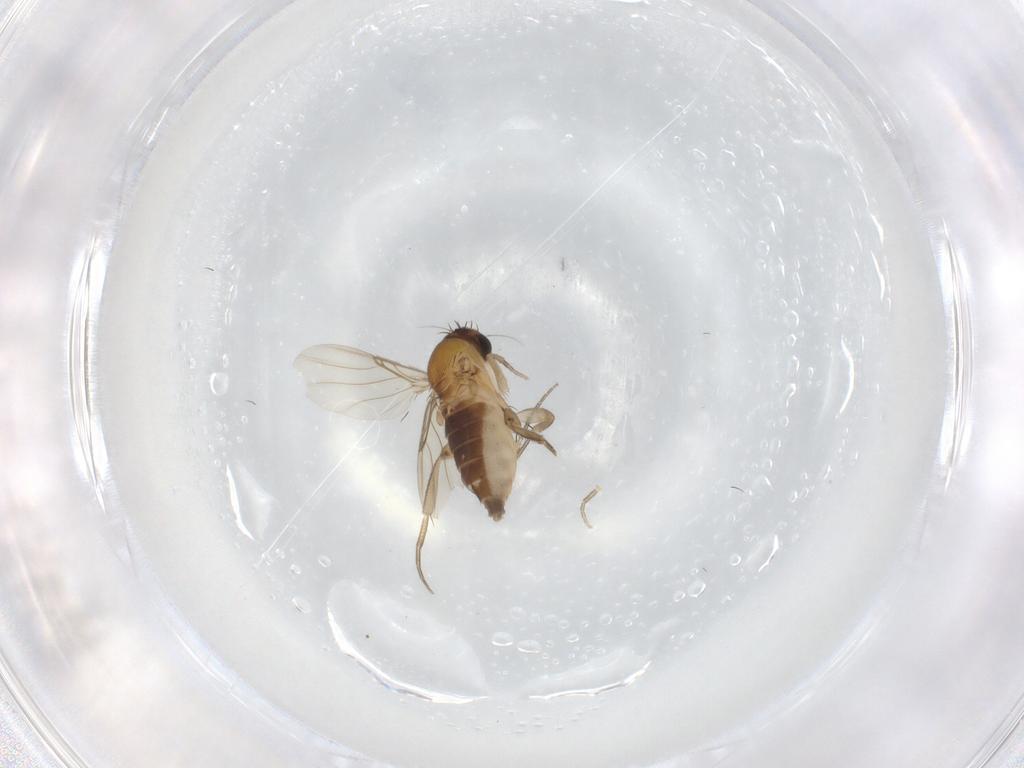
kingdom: Animalia
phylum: Arthropoda
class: Insecta
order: Diptera
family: Phoridae
